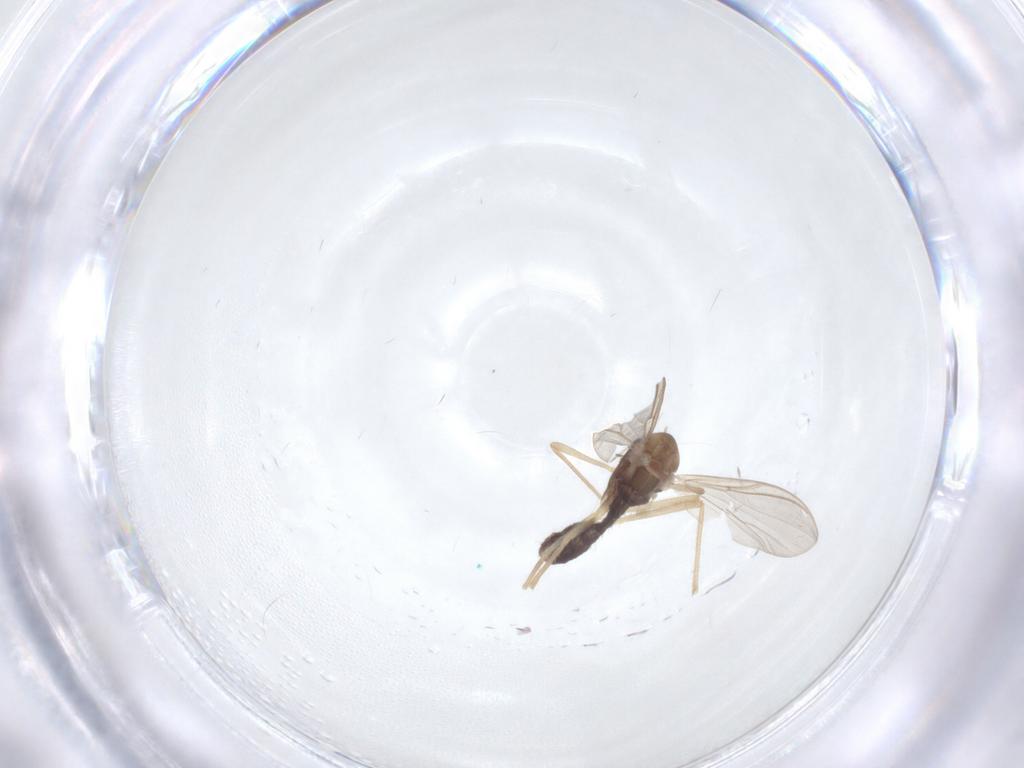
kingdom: Animalia
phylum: Arthropoda
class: Insecta
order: Diptera
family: Chironomidae
